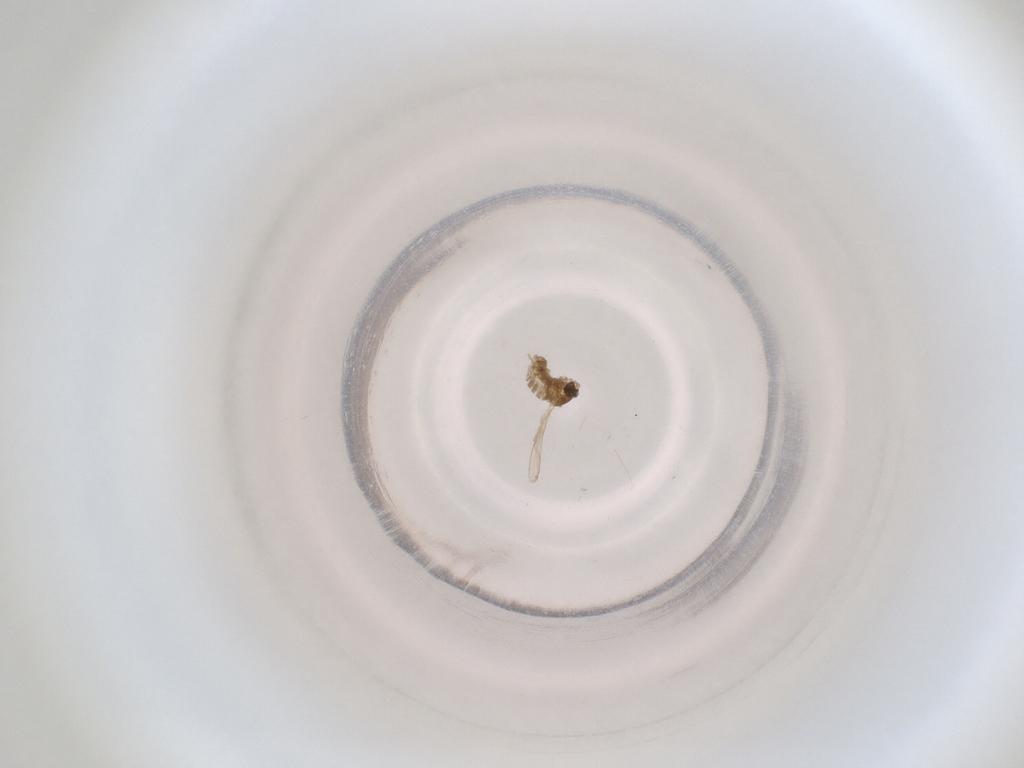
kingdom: Animalia
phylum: Arthropoda
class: Insecta
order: Diptera
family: Cecidomyiidae
